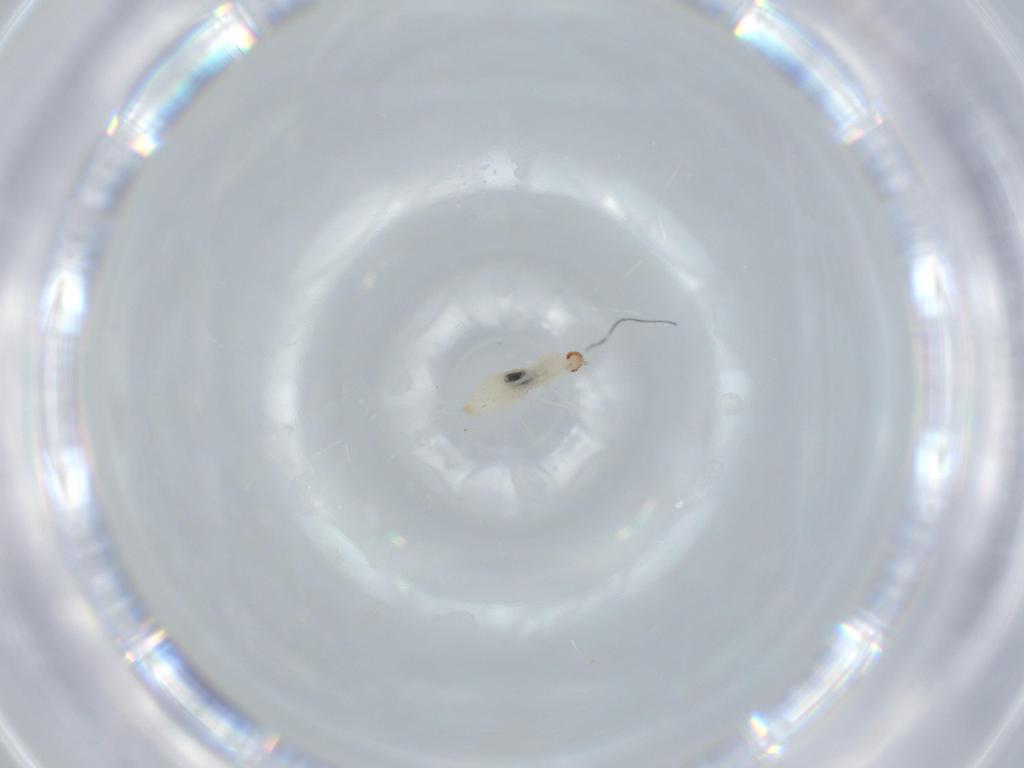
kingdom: Animalia
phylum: Arthropoda
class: Insecta
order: Diptera
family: Cecidomyiidae
